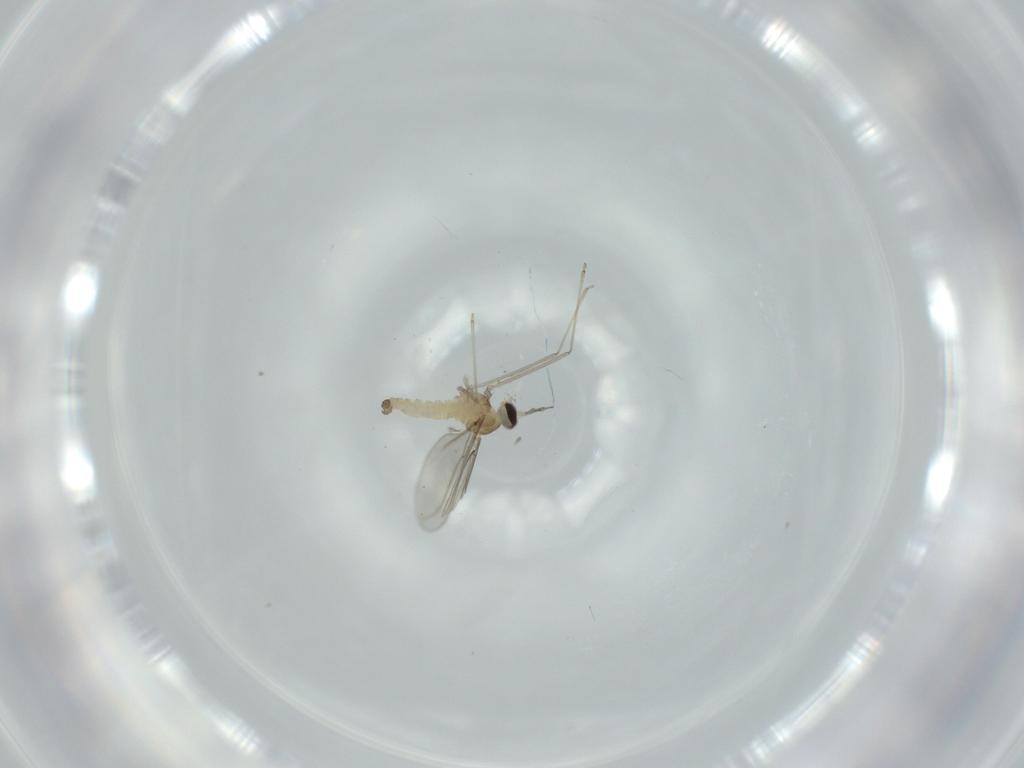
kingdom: Animalia
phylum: Arthropoda
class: Insecta
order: Diptera
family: Cecidomyiidae
